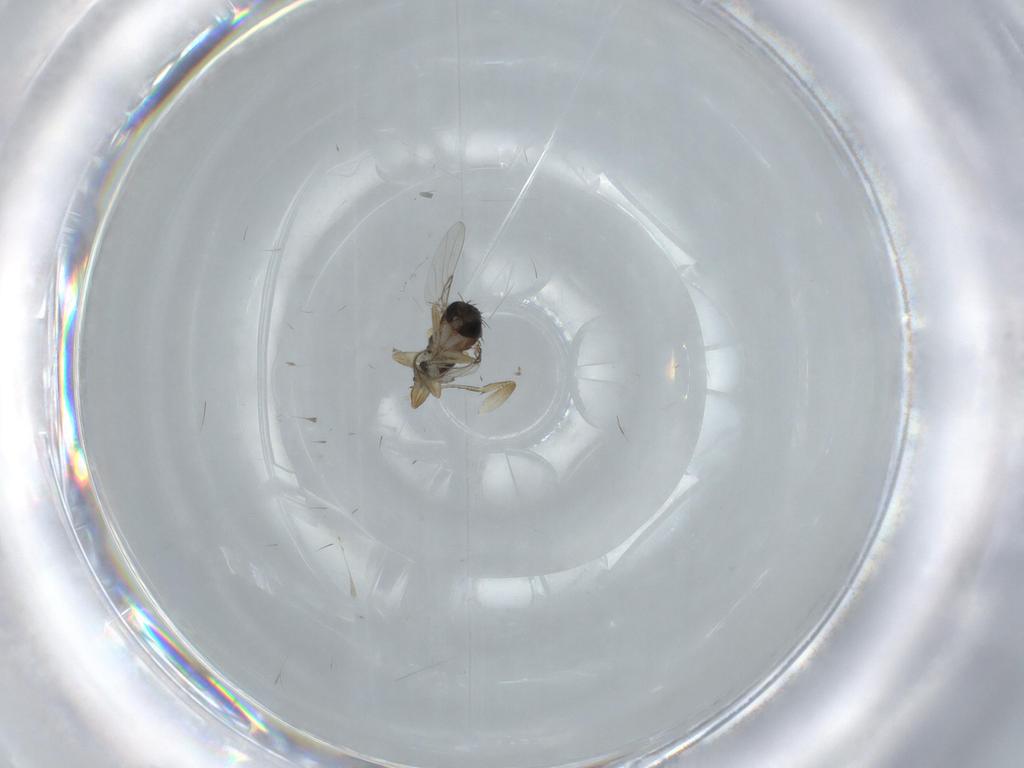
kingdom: Animalia
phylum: Arthropoda
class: Insecta
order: Diptera
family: Phoridae
